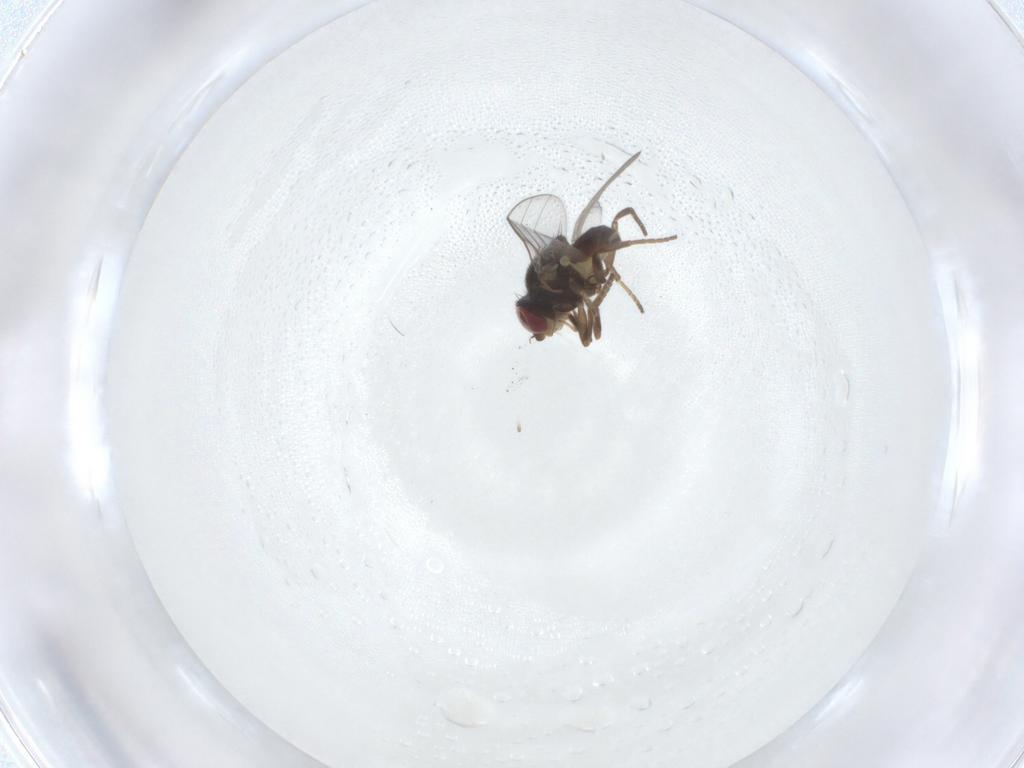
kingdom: Animalia
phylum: Arthropoda
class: Insecta
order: Diptera
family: Chloropidae
